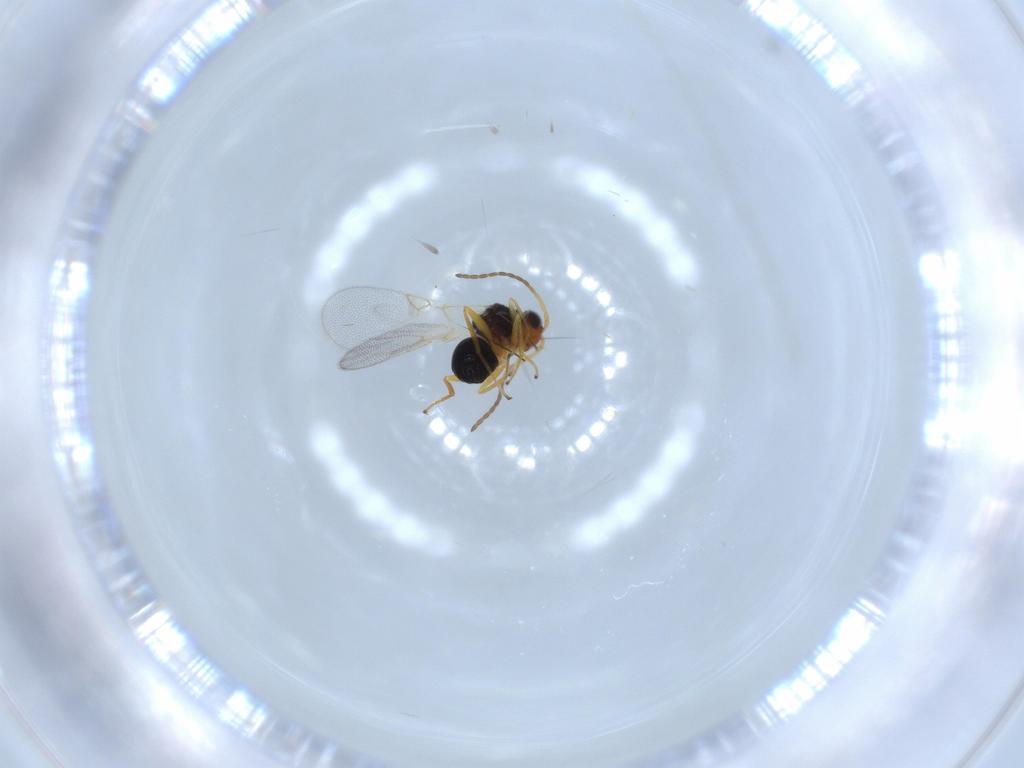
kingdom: Animalia
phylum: Arthropoda
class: Insecta
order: Hymenoptera
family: Figitidae
